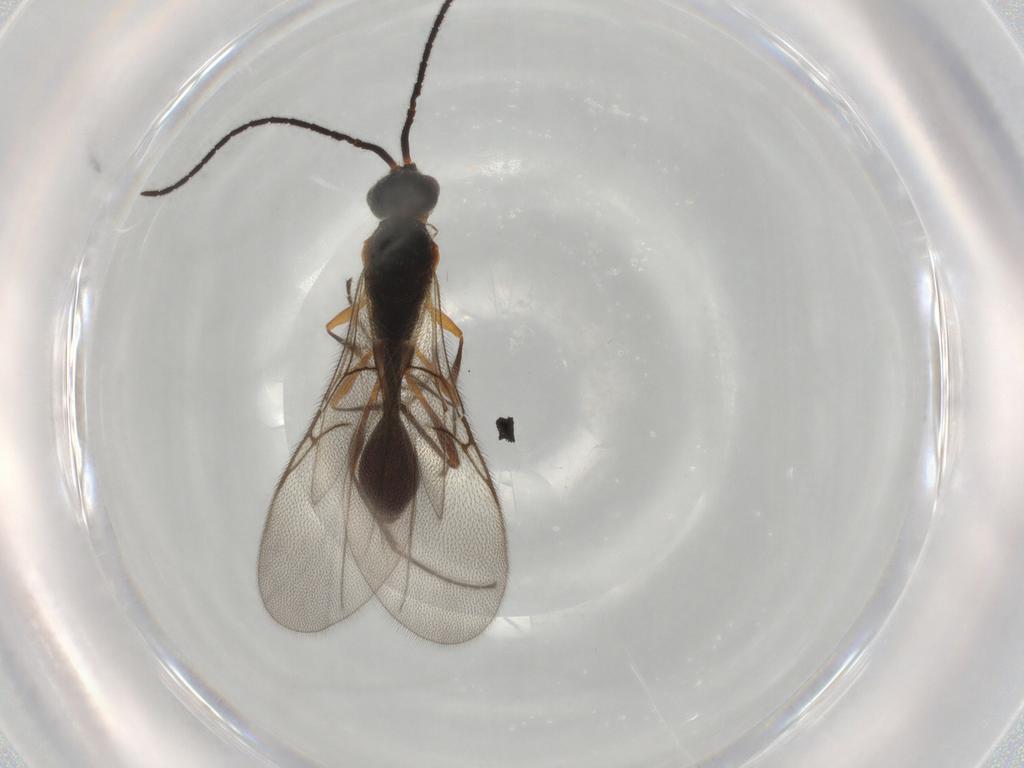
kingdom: Animalia
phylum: Arthropoda
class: Insecta
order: Hymenoptera
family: Diapriidae
